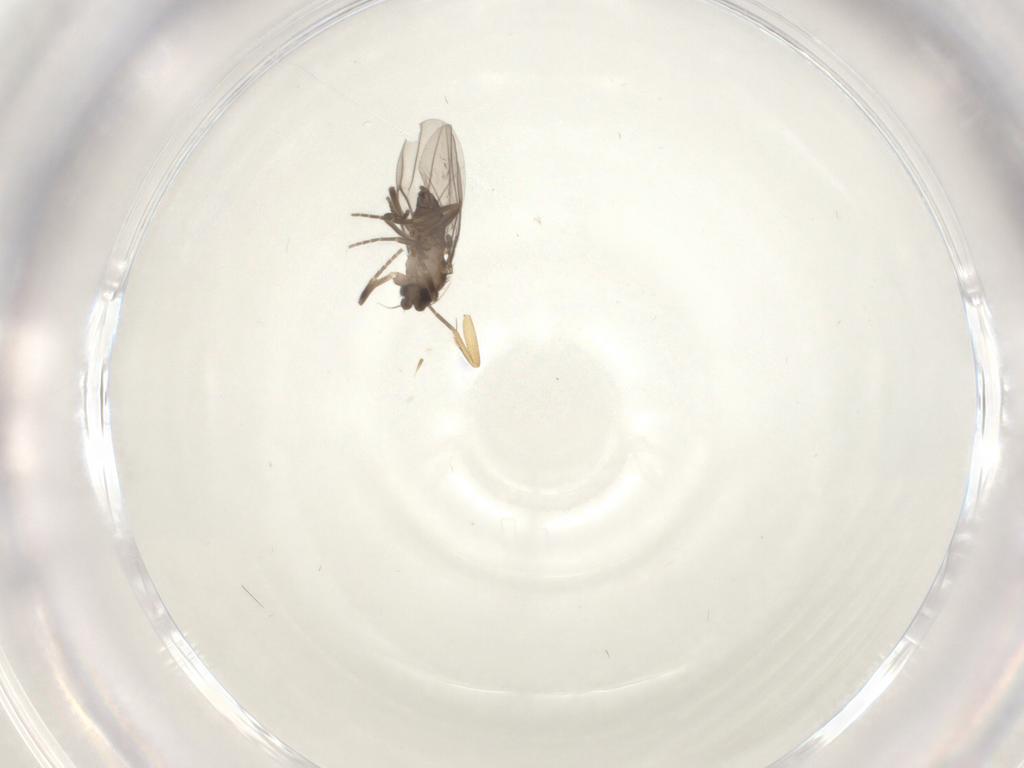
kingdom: Animalia
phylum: Arthropoda
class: Insecta
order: Diptera
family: Phoridae
